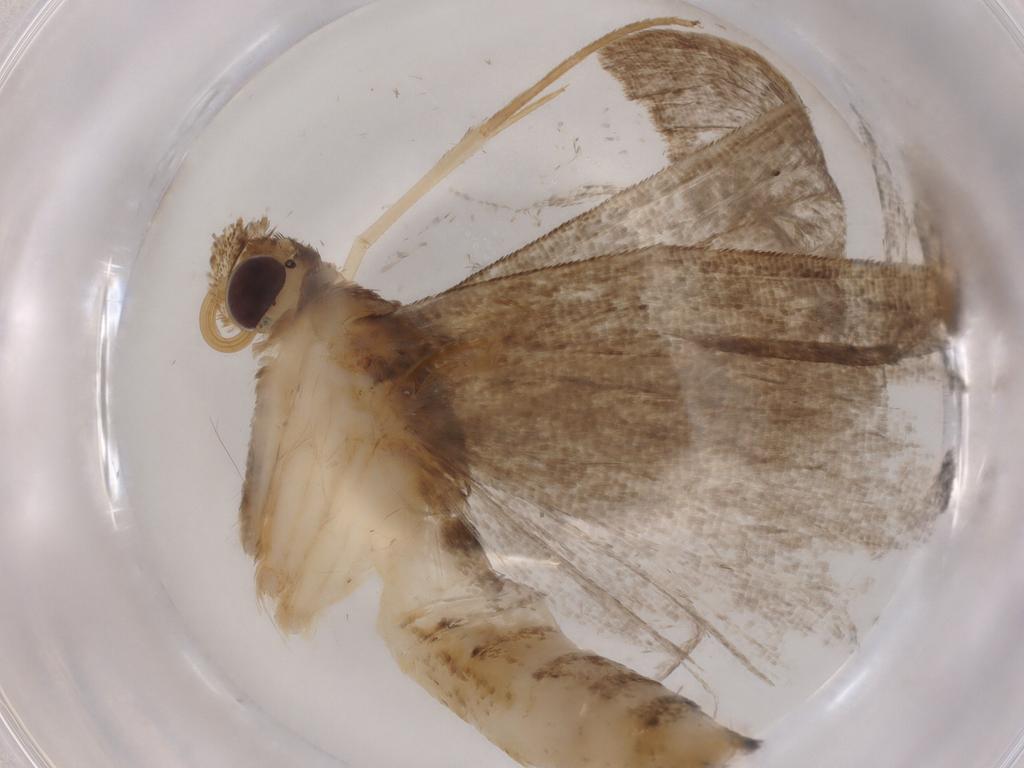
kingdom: Animalia
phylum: Arthropoda
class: Insecta
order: Lepidoptera
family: Erebidae
